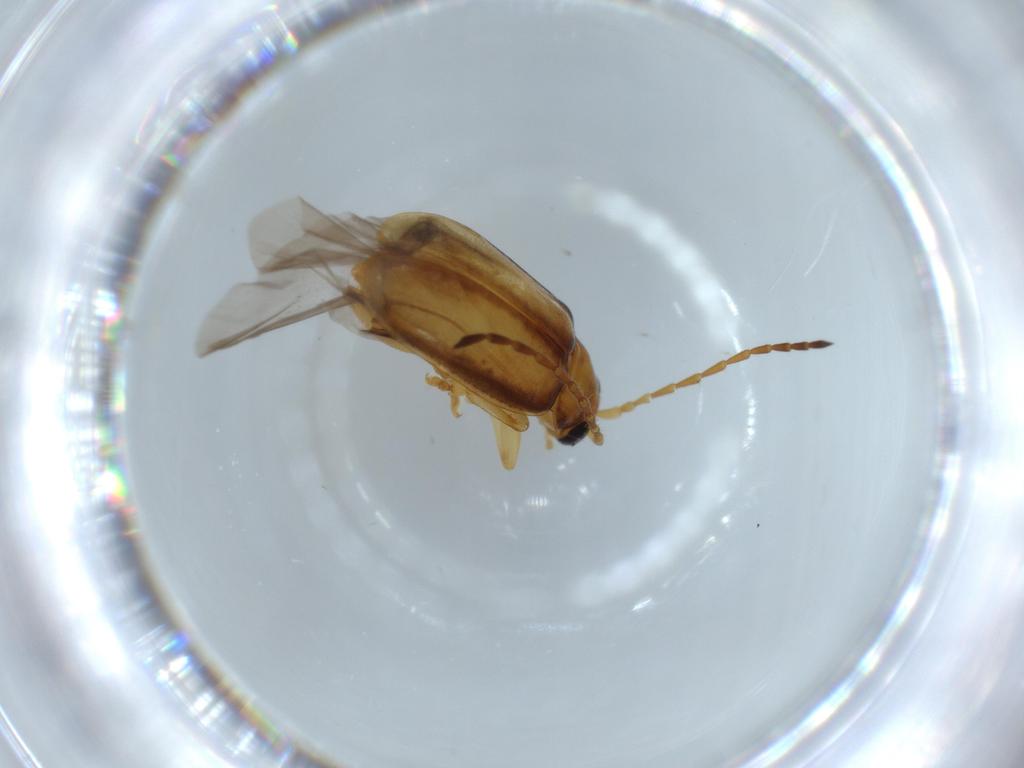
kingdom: Animalia
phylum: Arthropoda
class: Insecta
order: Coleoptera
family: Chrysomelidae
